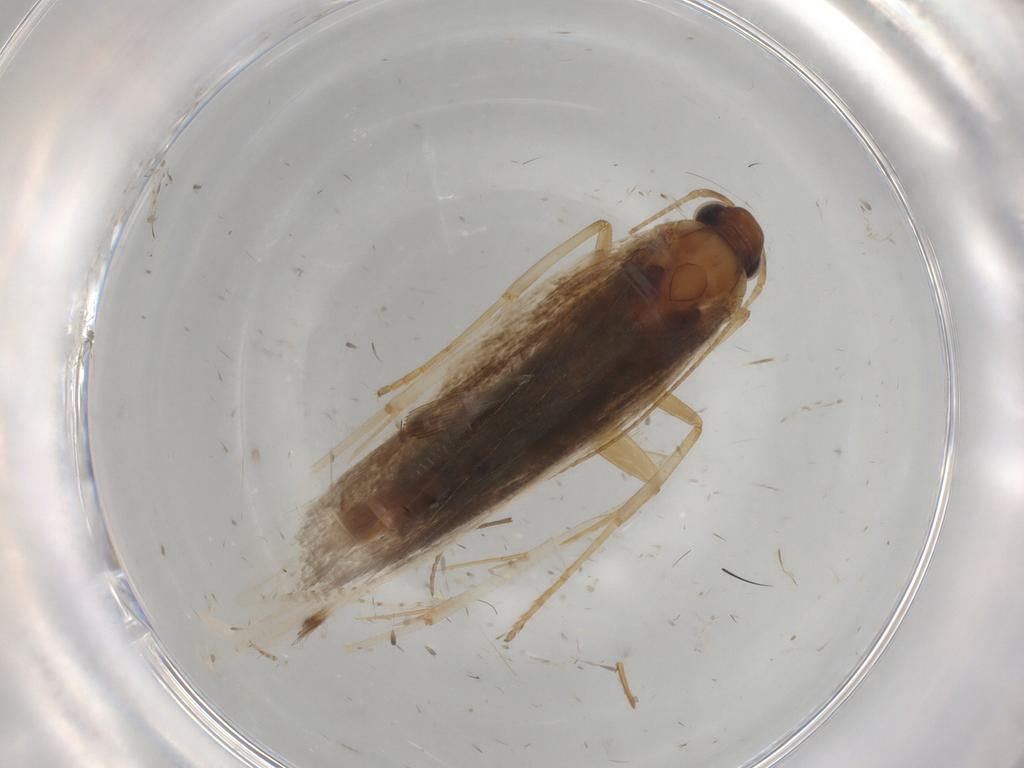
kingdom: Animalia
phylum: Arthropoda
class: Insecta
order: Lepidoptera
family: Gelechiidae
